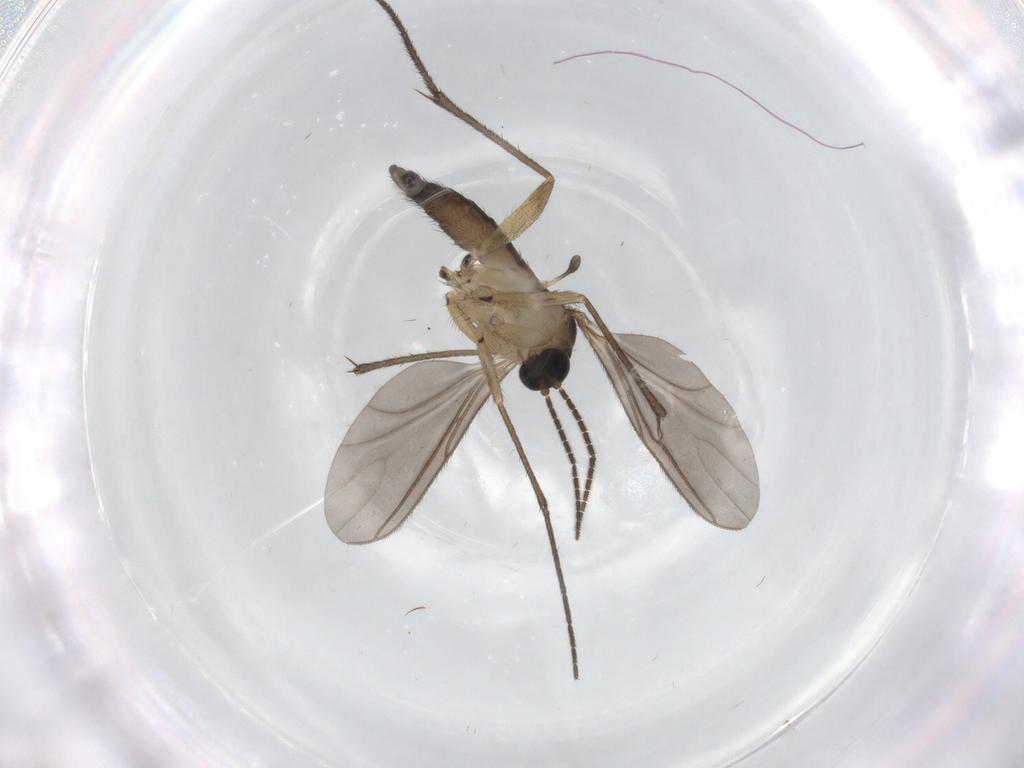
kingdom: Animalia
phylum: Arthropoda
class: Insecta
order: Diptera
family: Sciaridae
